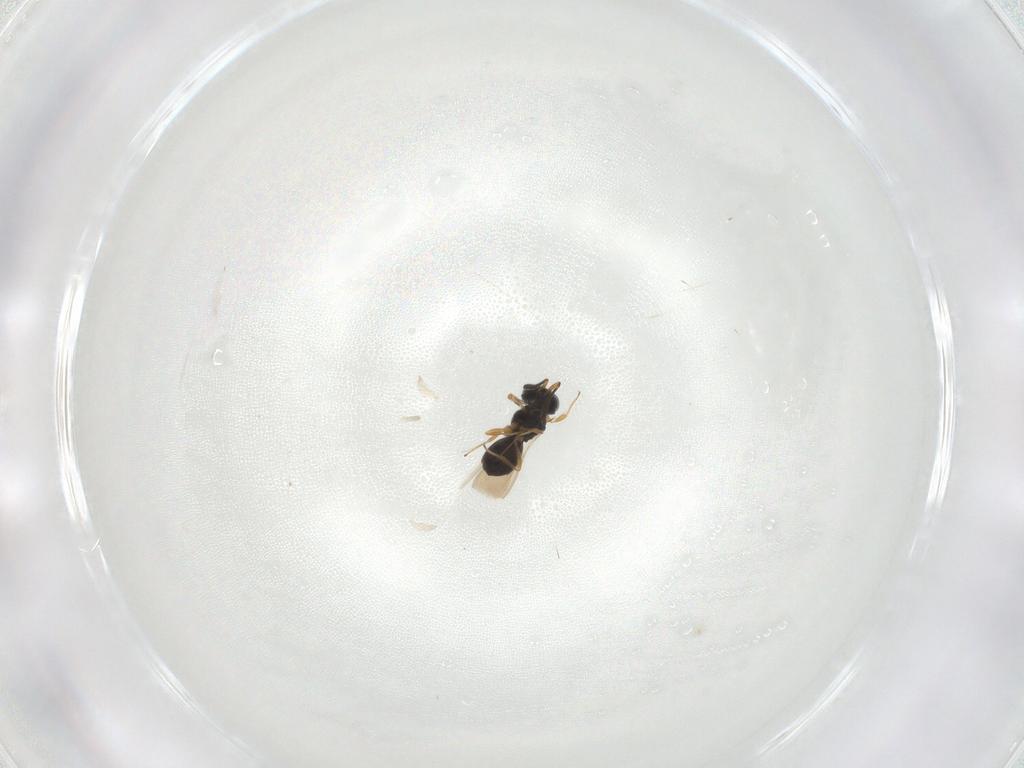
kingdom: Animalia
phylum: Arthropoda
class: Insecta
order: Hymenoptera
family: Scelionidae
